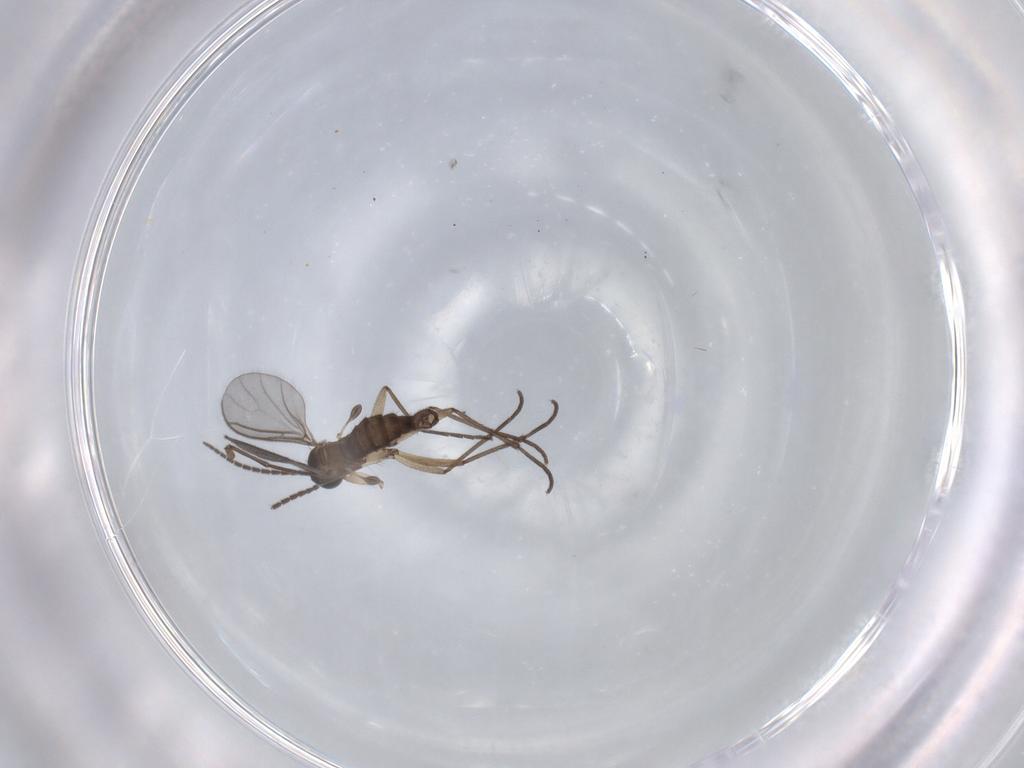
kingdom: Animalia
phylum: Arthropoda
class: Insecta
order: Diptera
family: Sciaridae
